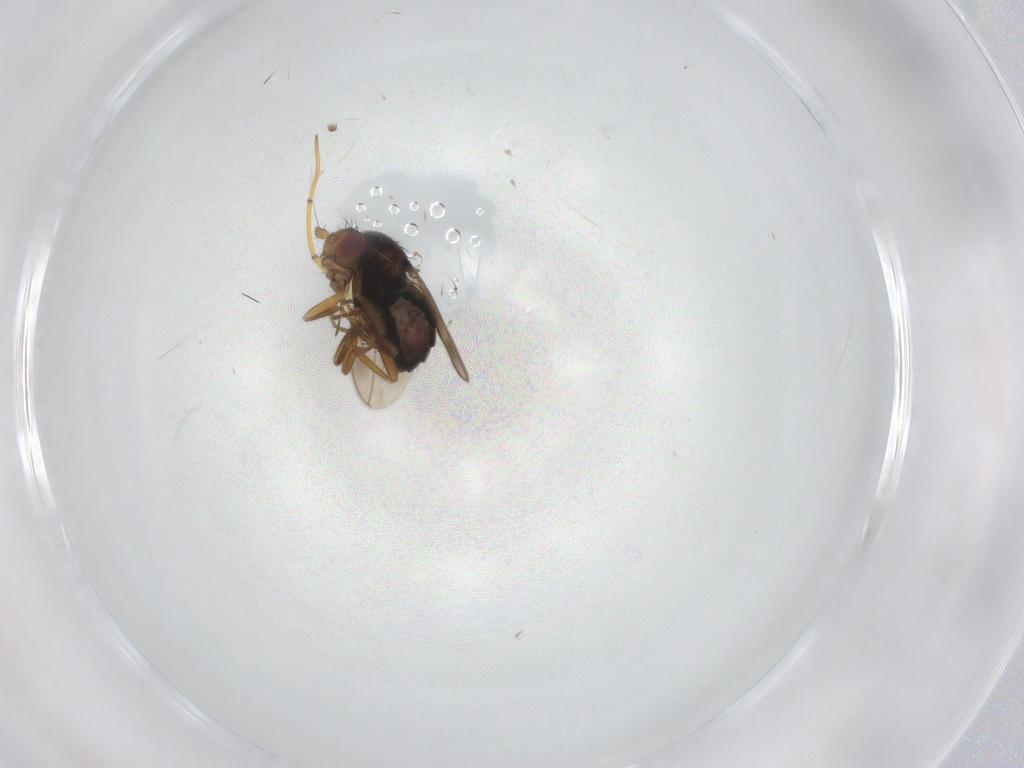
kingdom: Animalia
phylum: Arthropoda
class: Insecta
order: Diptera
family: Sphaeroceridae
